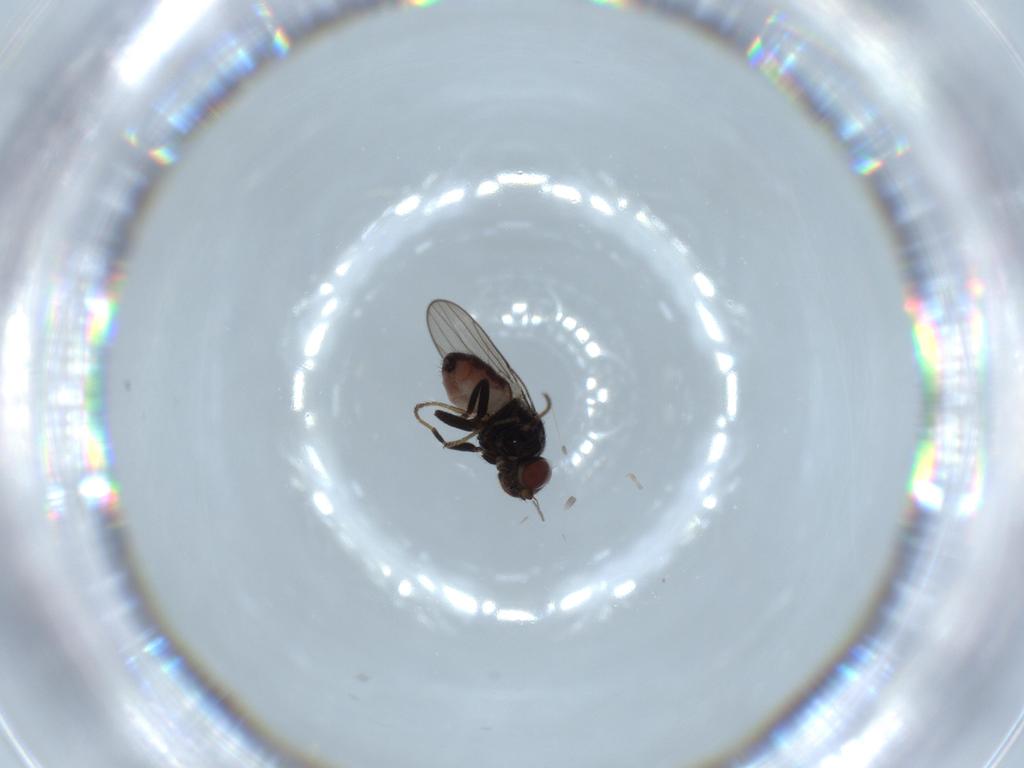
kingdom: Animalia
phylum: Arthropoda
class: Insecta
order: Diptera
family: Chloropidae
